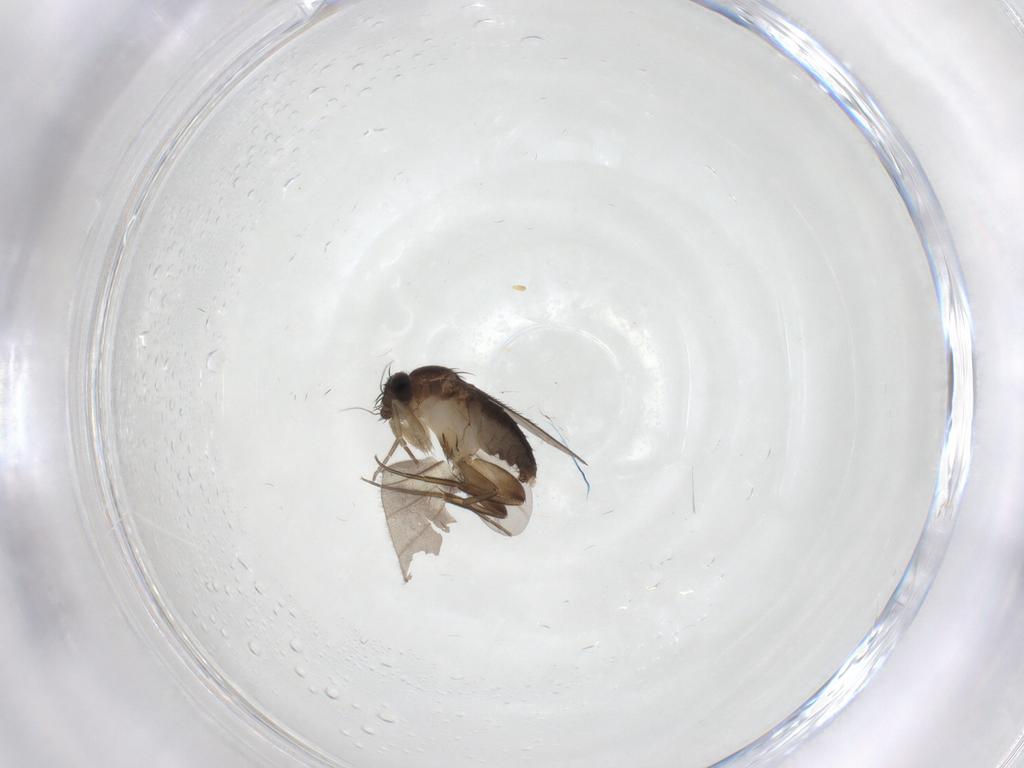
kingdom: Animalia
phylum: Arthropoda
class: Insecta
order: Diptera
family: Phoridae
